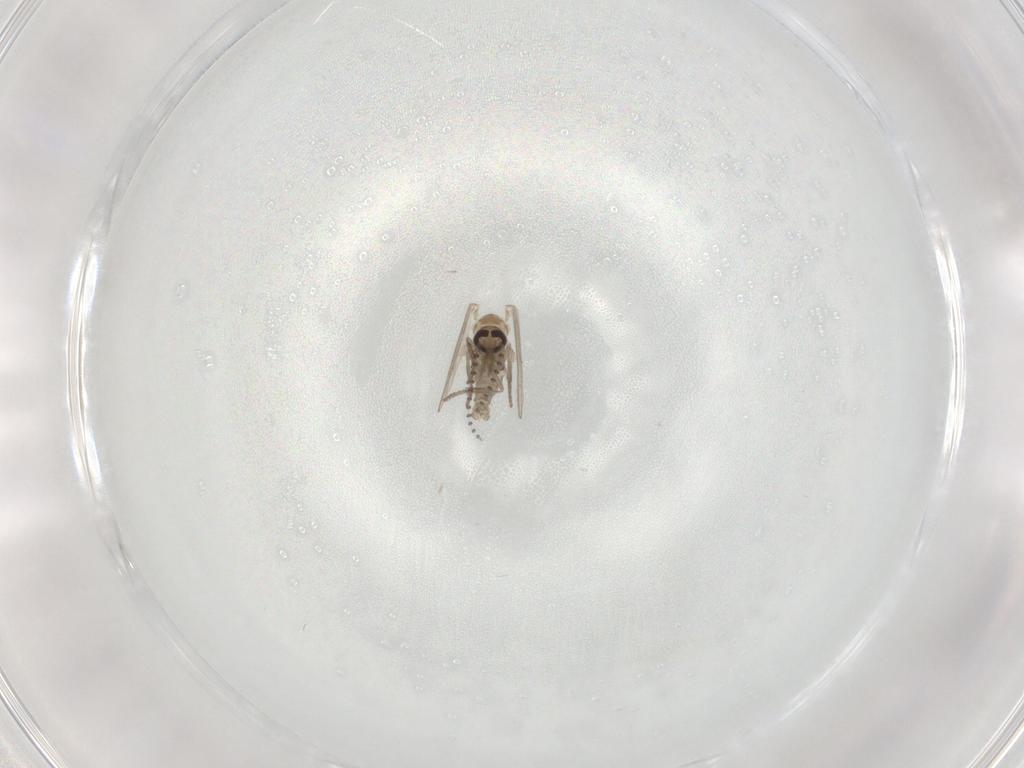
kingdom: Animalia
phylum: Arthropoda
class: Insecta
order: Diptera
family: Psychodidae
